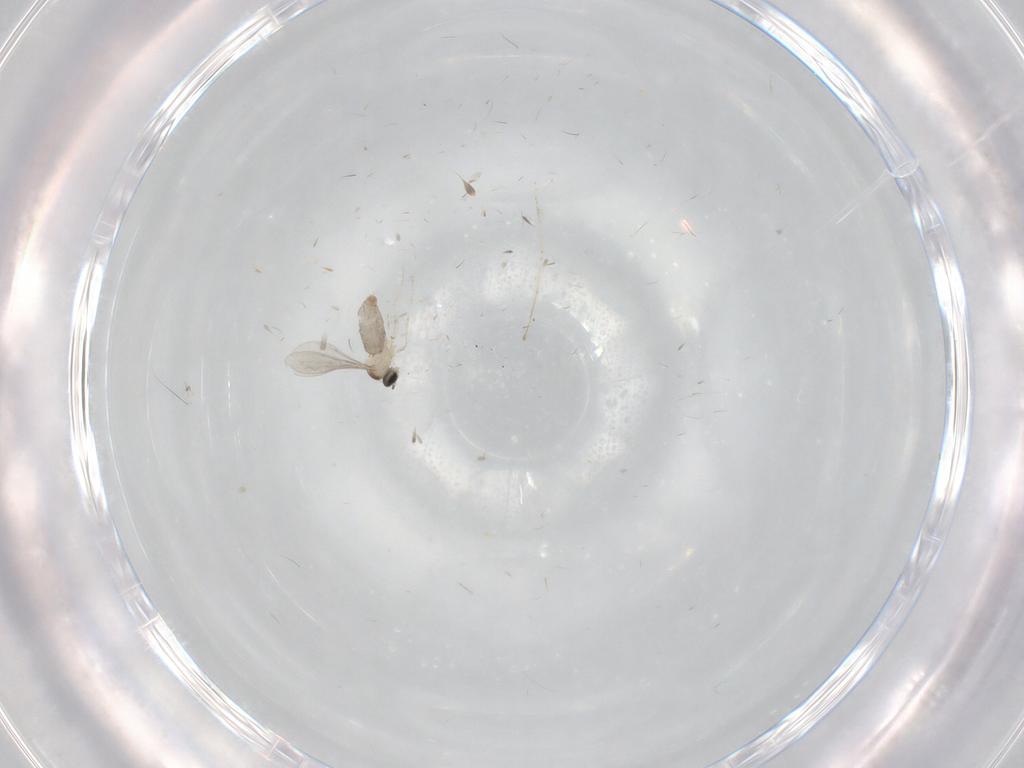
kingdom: Animalia
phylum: Arthropoda
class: Insecta
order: Diptera
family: Cecidomyiidae
